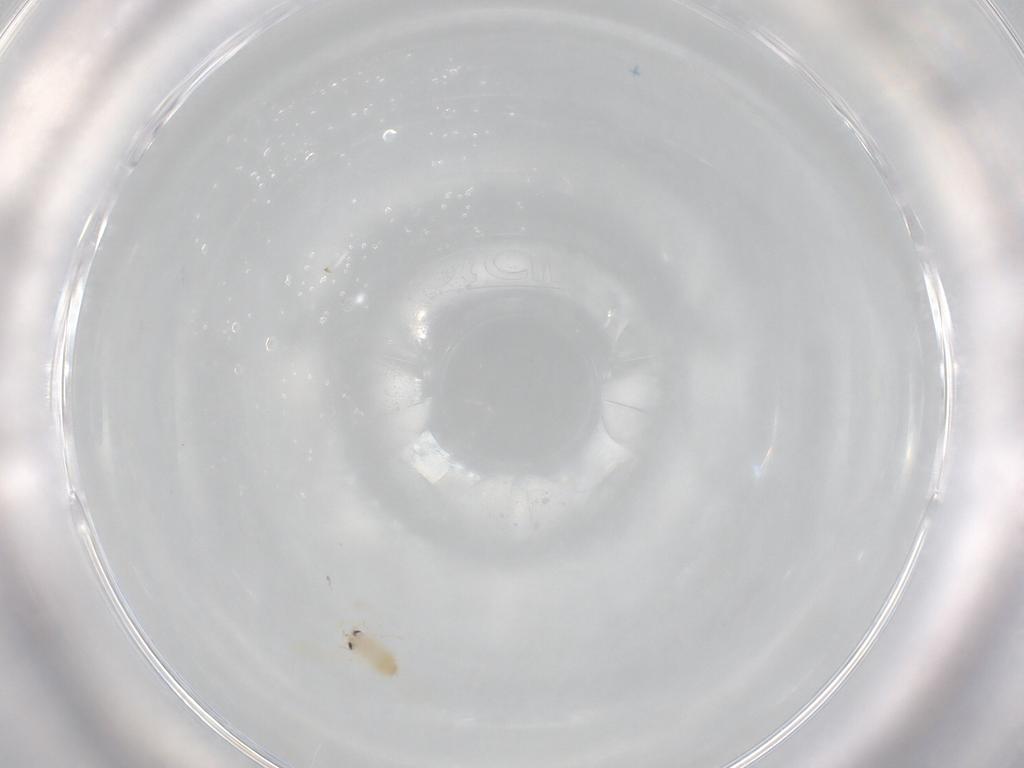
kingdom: Animalia
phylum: Arthropoda
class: Insecta
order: Hemiptera
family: Aleyrodidae
